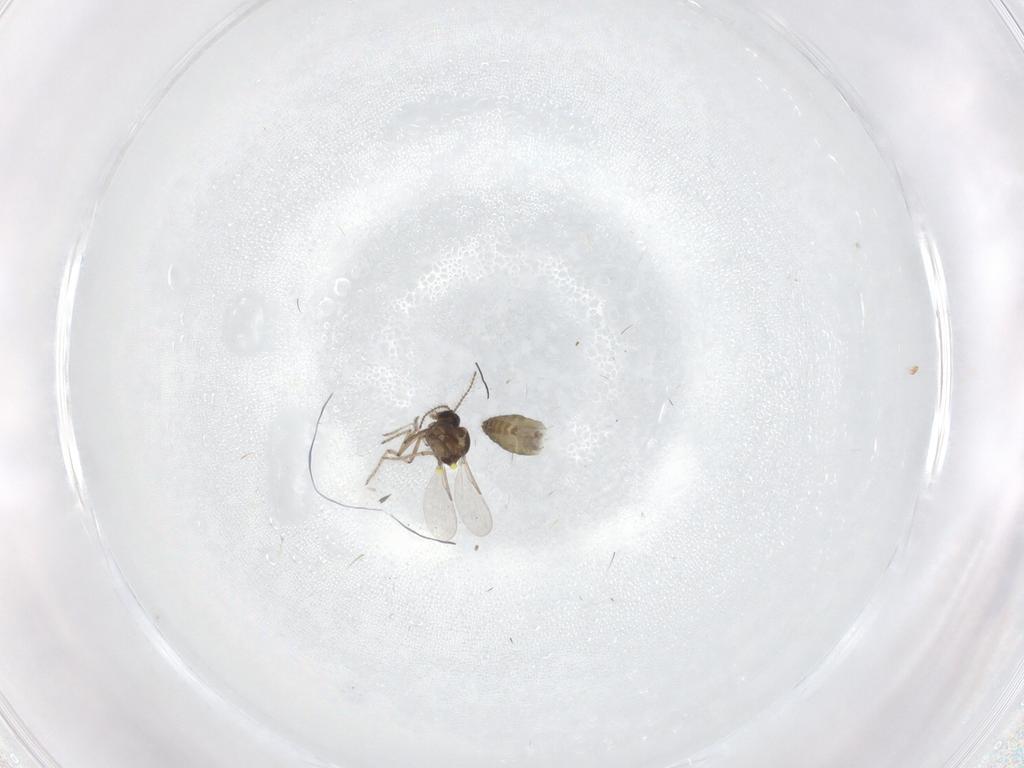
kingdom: Animalia
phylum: Arthropoda
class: Insecta
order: Diptera
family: Ceratopogonidae
